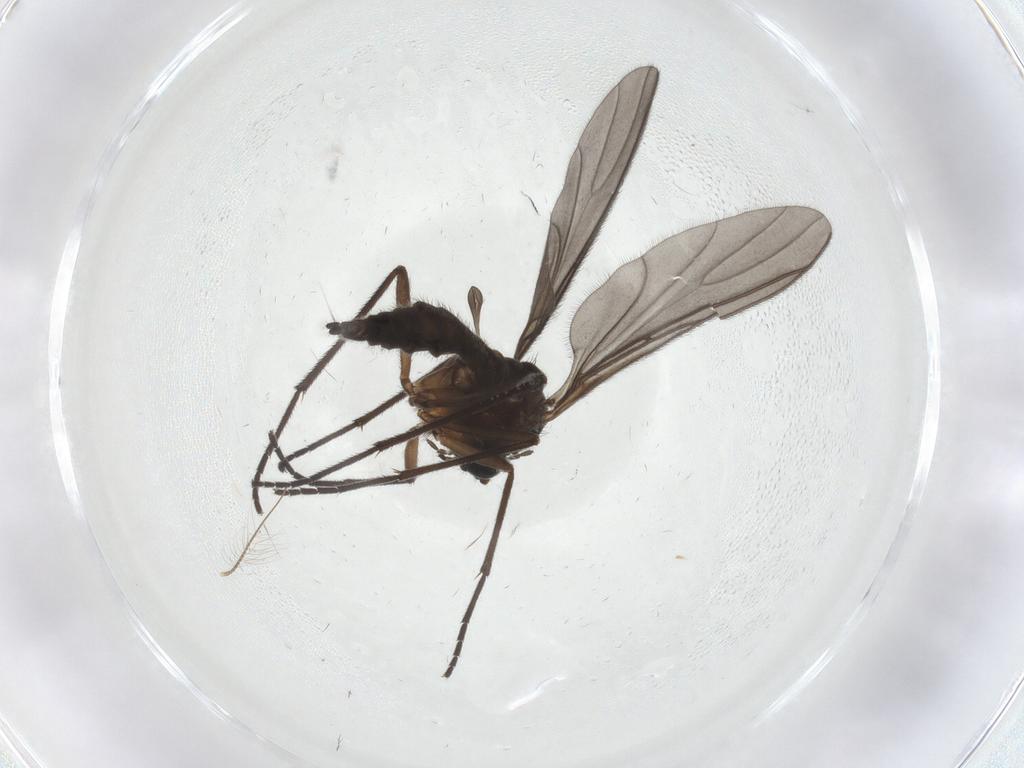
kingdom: Animalia
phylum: Arthropoda
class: Insecta
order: Diptera
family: Sciaridae
